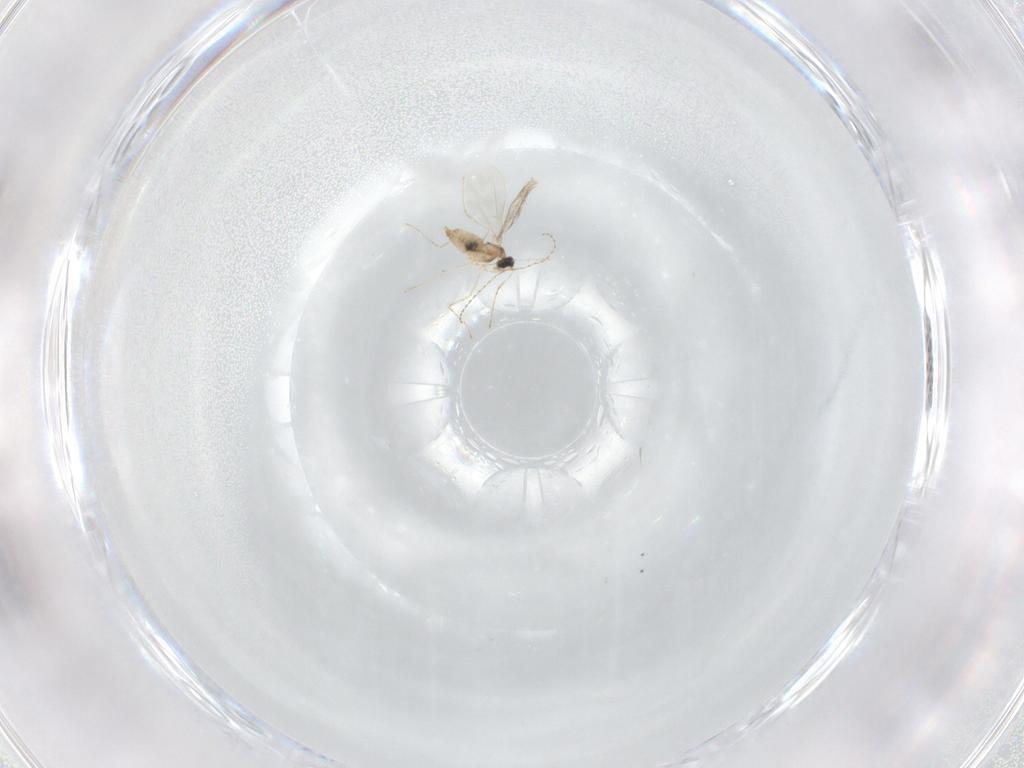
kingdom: Animalia
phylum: Arthropoda
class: Insecta
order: Diptera
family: Cecidomyiidae
